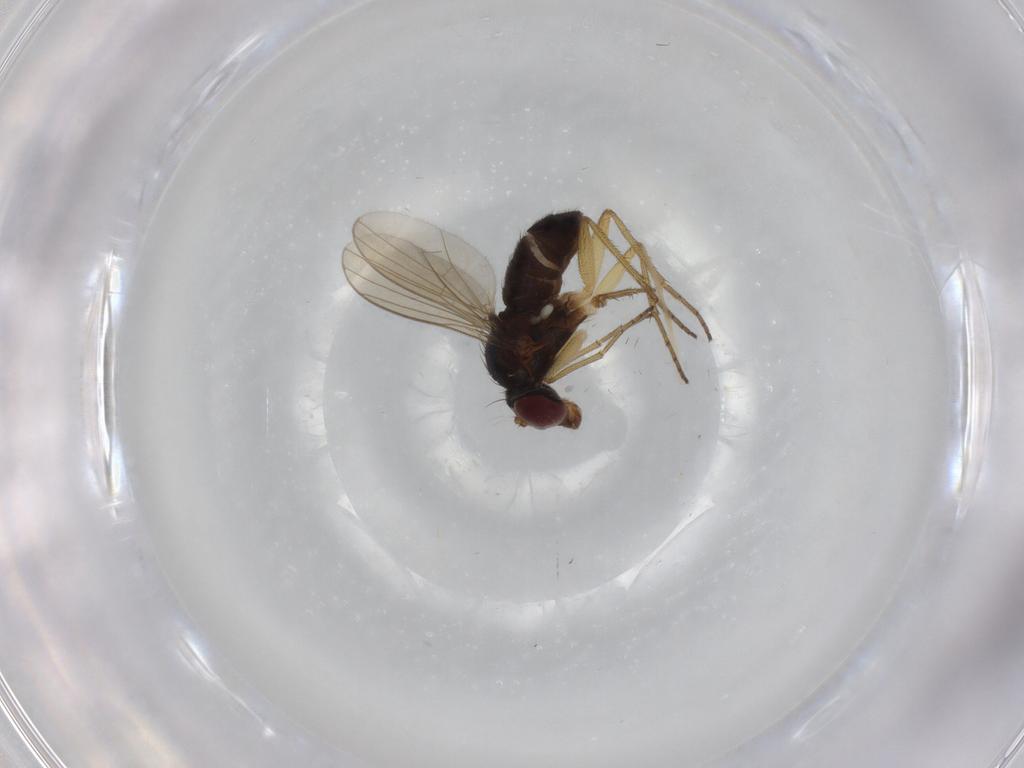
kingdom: Animalia
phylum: Arthropoda
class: Insecta
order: Diptera
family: Dolichopodidae
